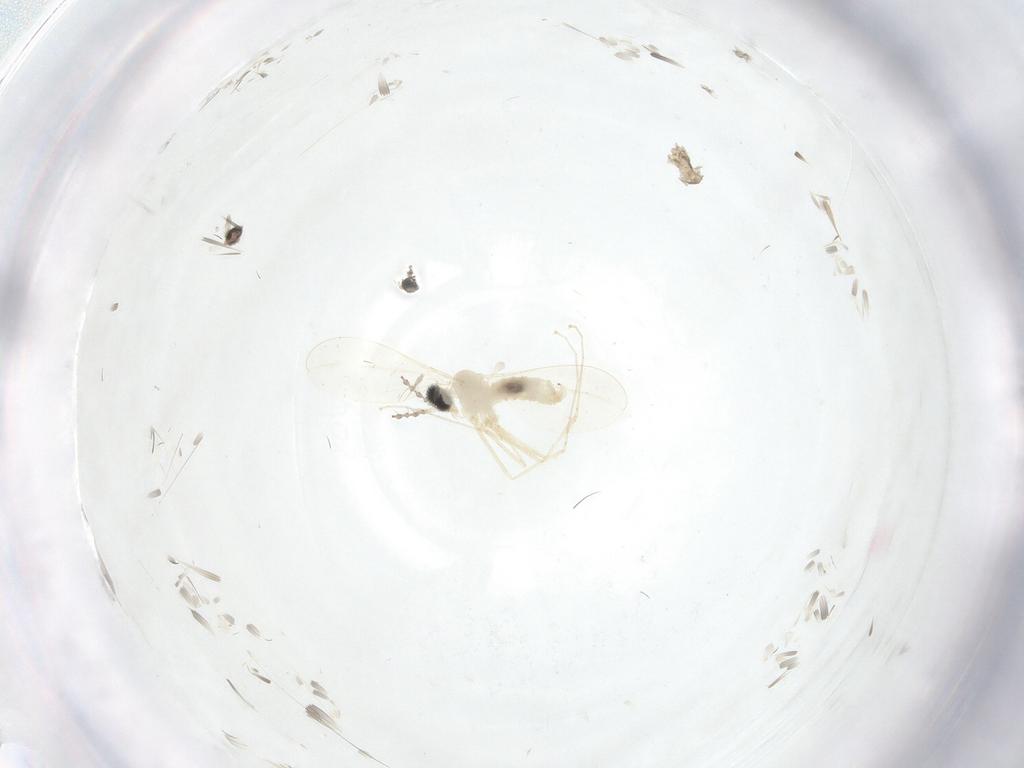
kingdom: Animalia
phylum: Arthropoda
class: Insecta
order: Diptera
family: Cecidomyiidae
